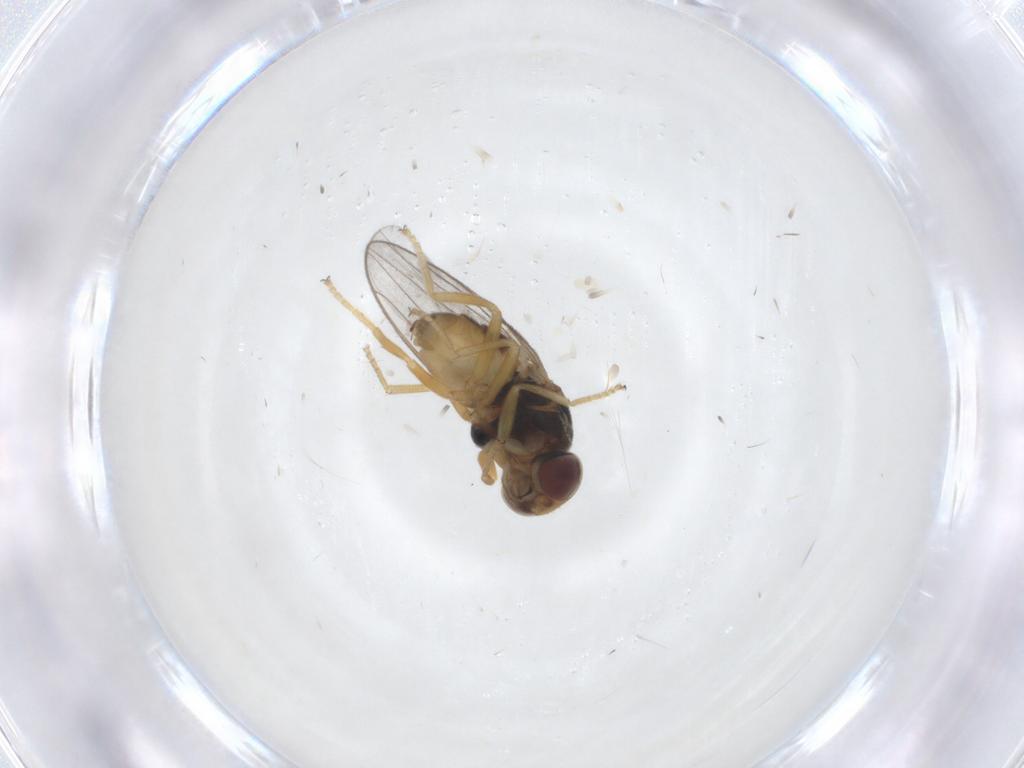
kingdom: Animalia
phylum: Arthropoda
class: Insecta
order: Diptera
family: Chloropidae
